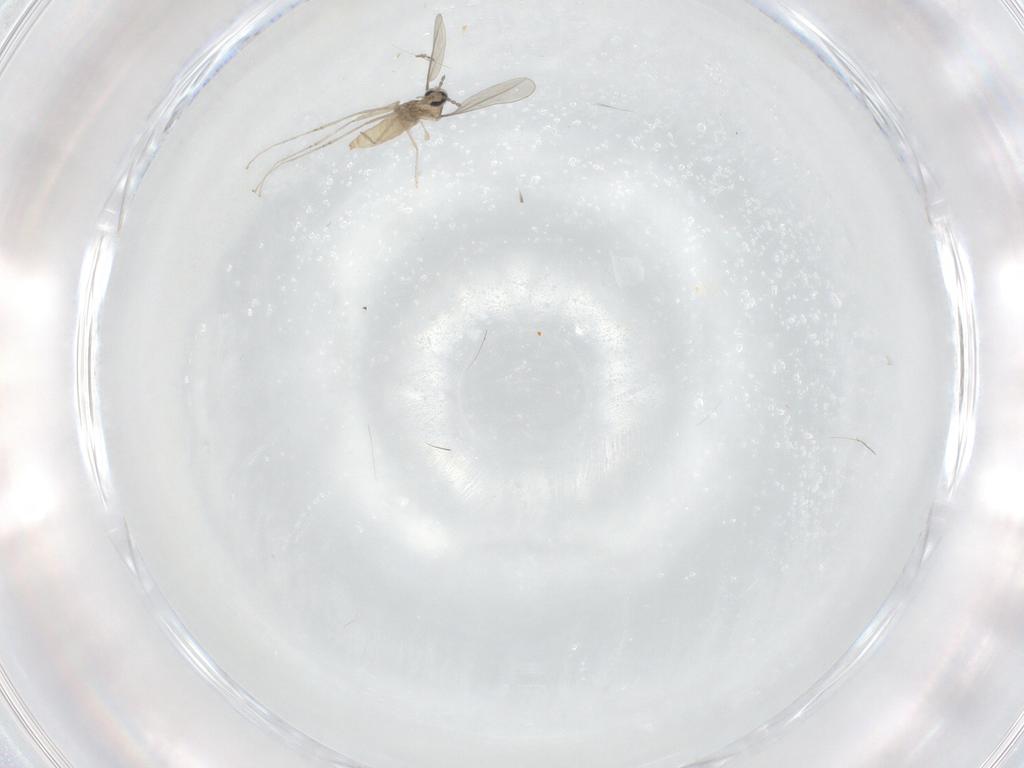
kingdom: Animalia
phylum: Arthropoda
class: Insecta
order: Diptera
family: Chironomidae
